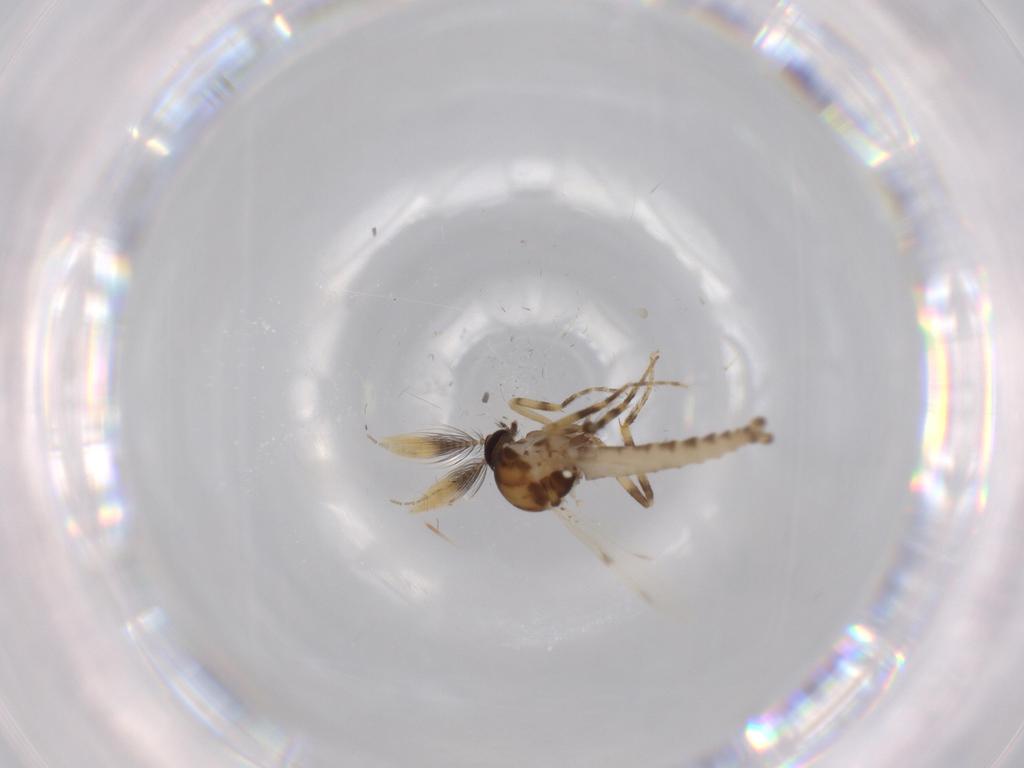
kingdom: Animalia
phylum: Arthropoda
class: Insecta
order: Diptera
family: Ceratopogonidae
